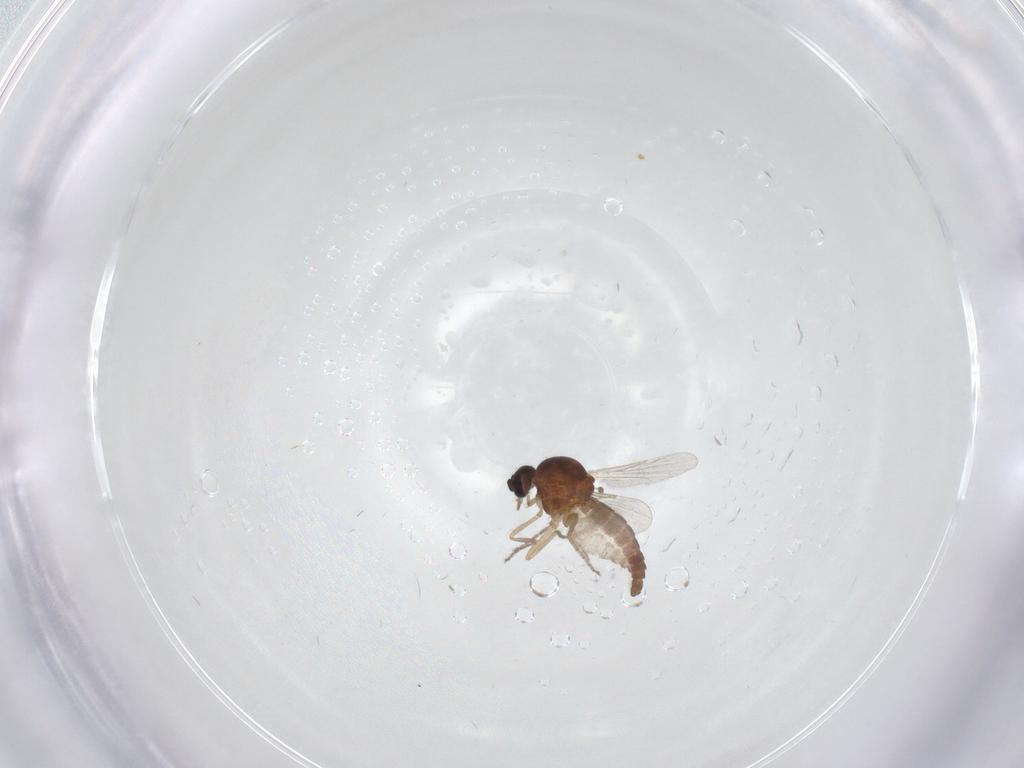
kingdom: Animalia
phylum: Arthropoda
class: Insecta
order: Diptera
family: Ceratopogonidae
